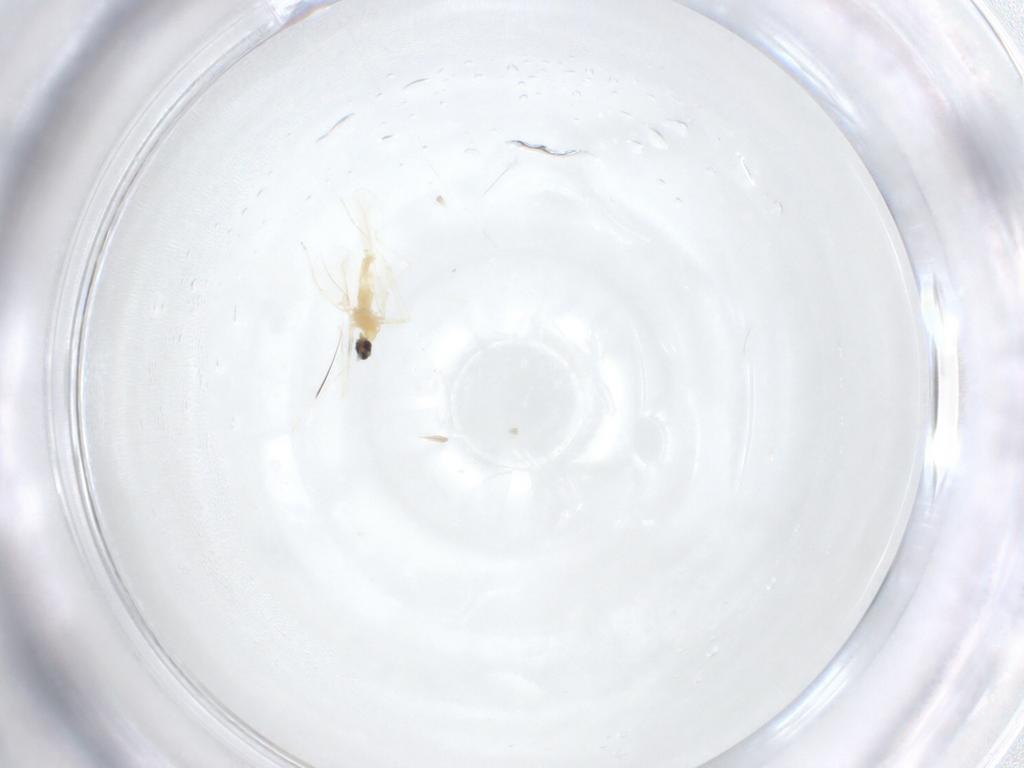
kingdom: Animalia
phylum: Arthropoda
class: Insecta
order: Diptera
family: Cecidomyiidae
